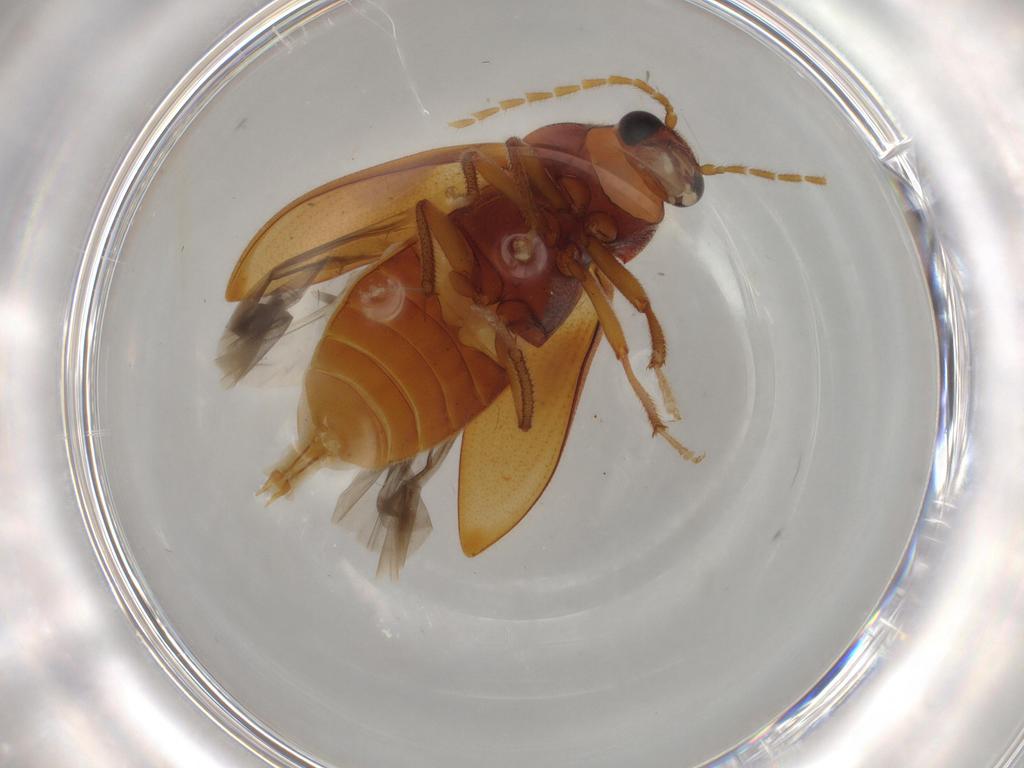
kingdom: Animalia
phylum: Arthropoda
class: Insecta
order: Coleoptera
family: Ptilodactylidae
